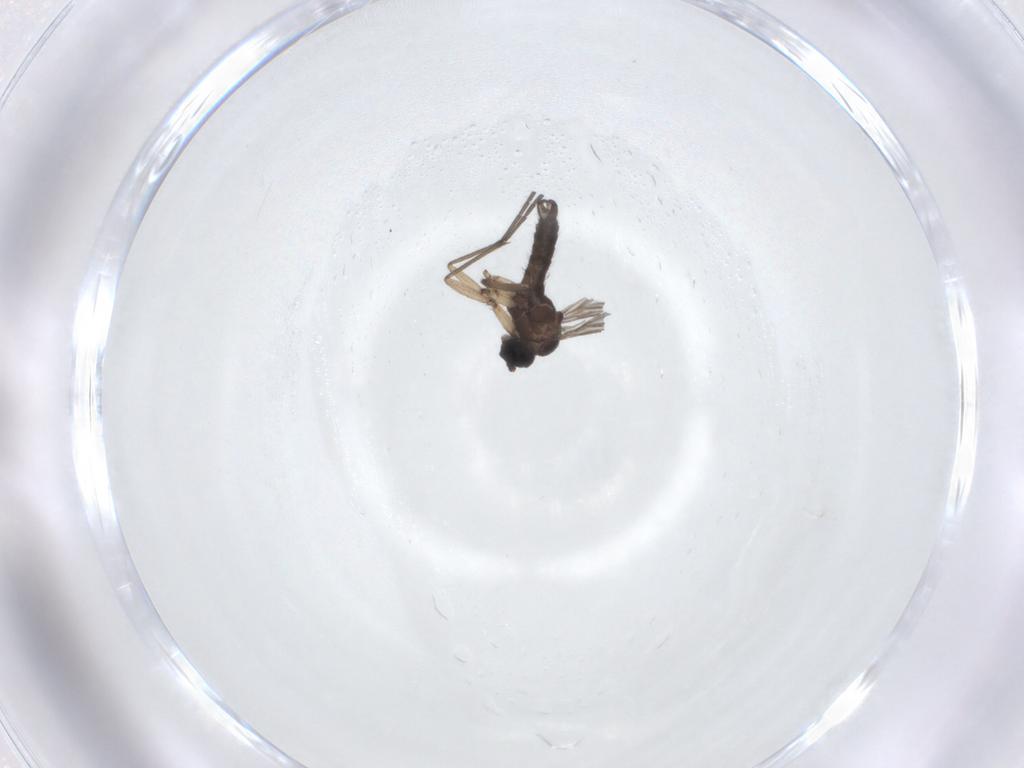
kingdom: Animalia
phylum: Arthropoda
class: Insecta
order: Diptera
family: Sciaridae
